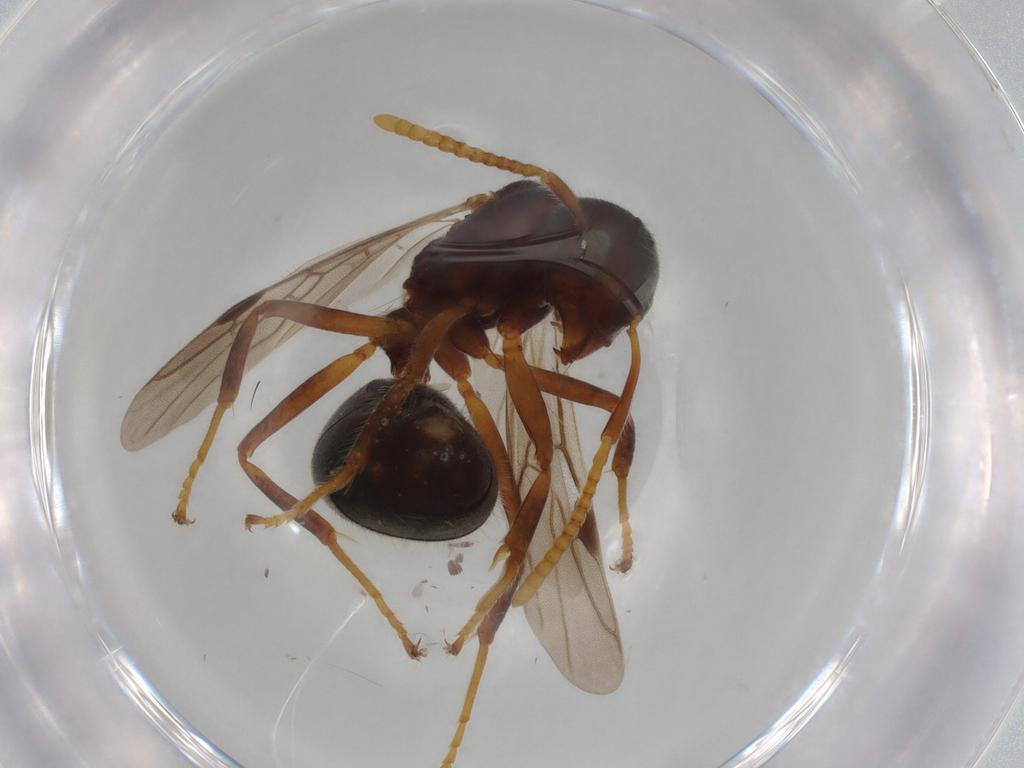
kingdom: Animalia
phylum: Arthropoda
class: Insecta
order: Hymenoptera
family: Formicidae
